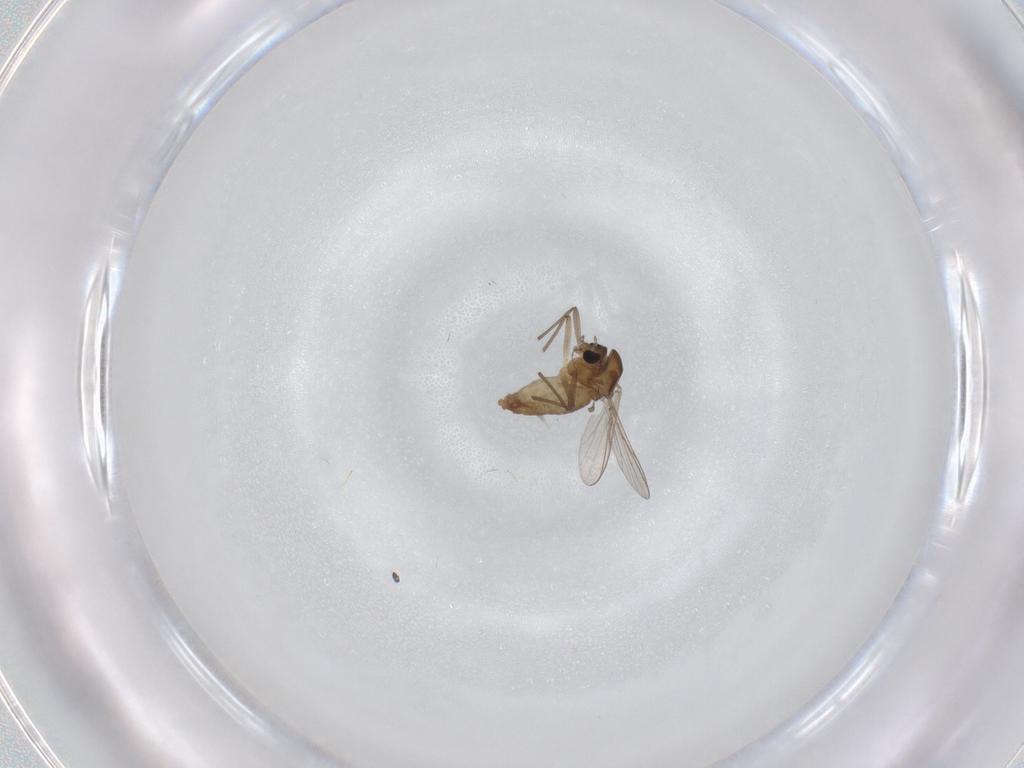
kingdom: Animalia
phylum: Arthropoda
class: Insecta
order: Diptera
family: Chironomidae
